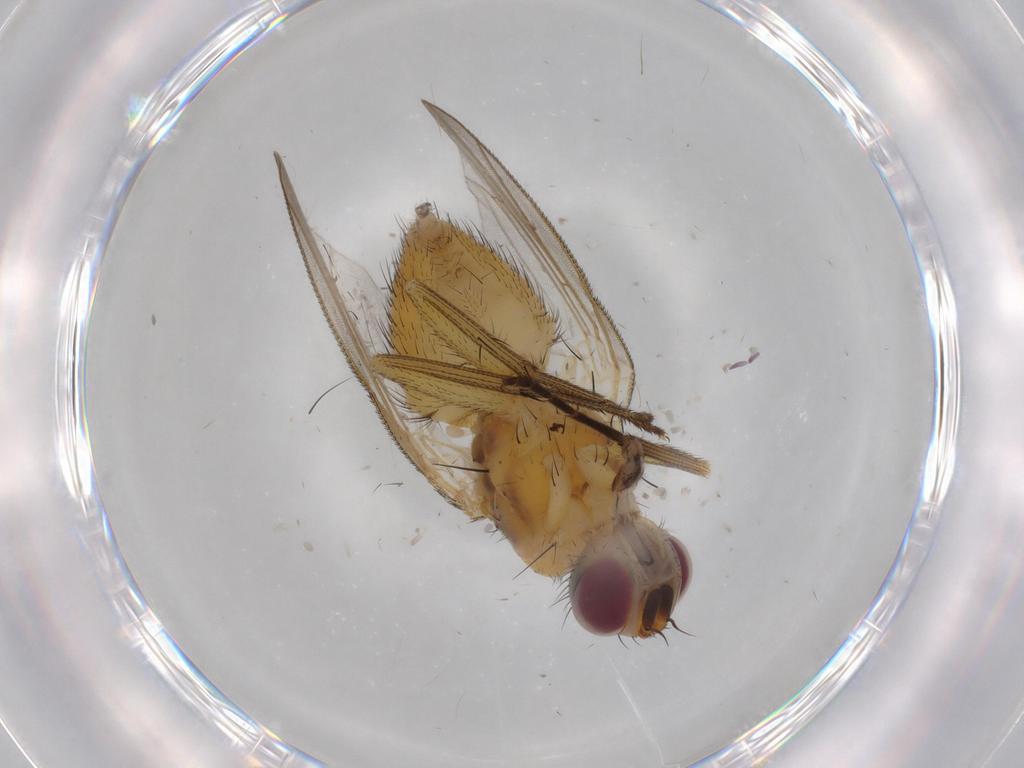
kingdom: Animalia
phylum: Arthropoda
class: Insecta
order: Diptera
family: Muscidae
